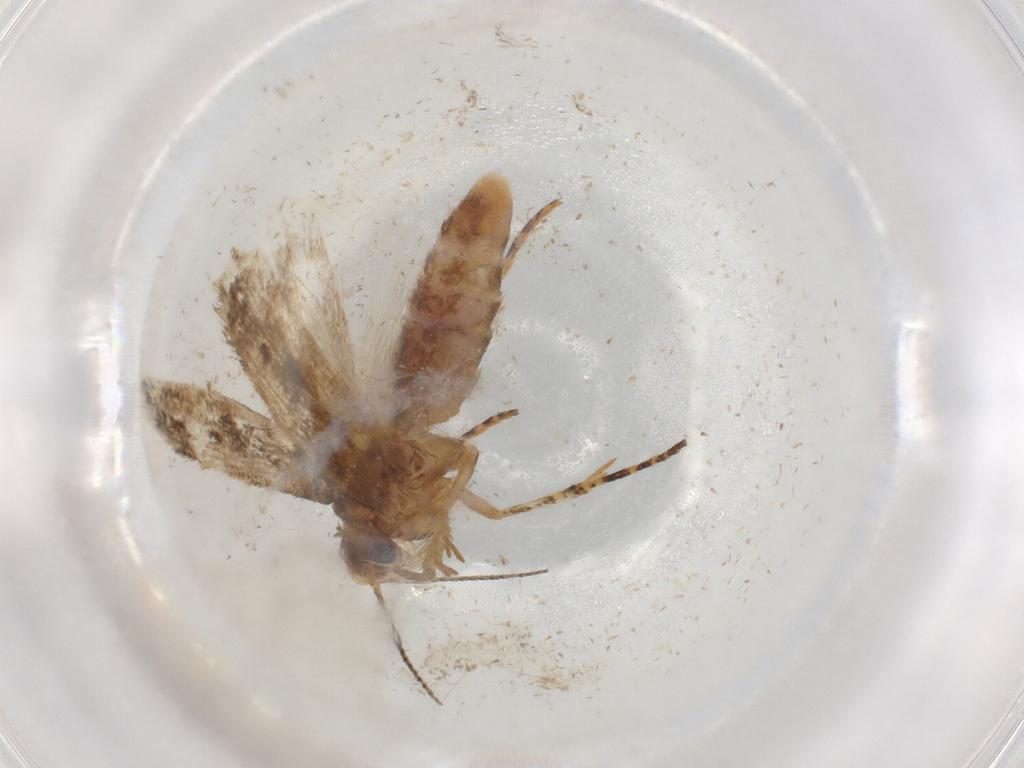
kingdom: Animalia
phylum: Arthropoda
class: Insecta
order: Lepidoptera
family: Gelechiidae
